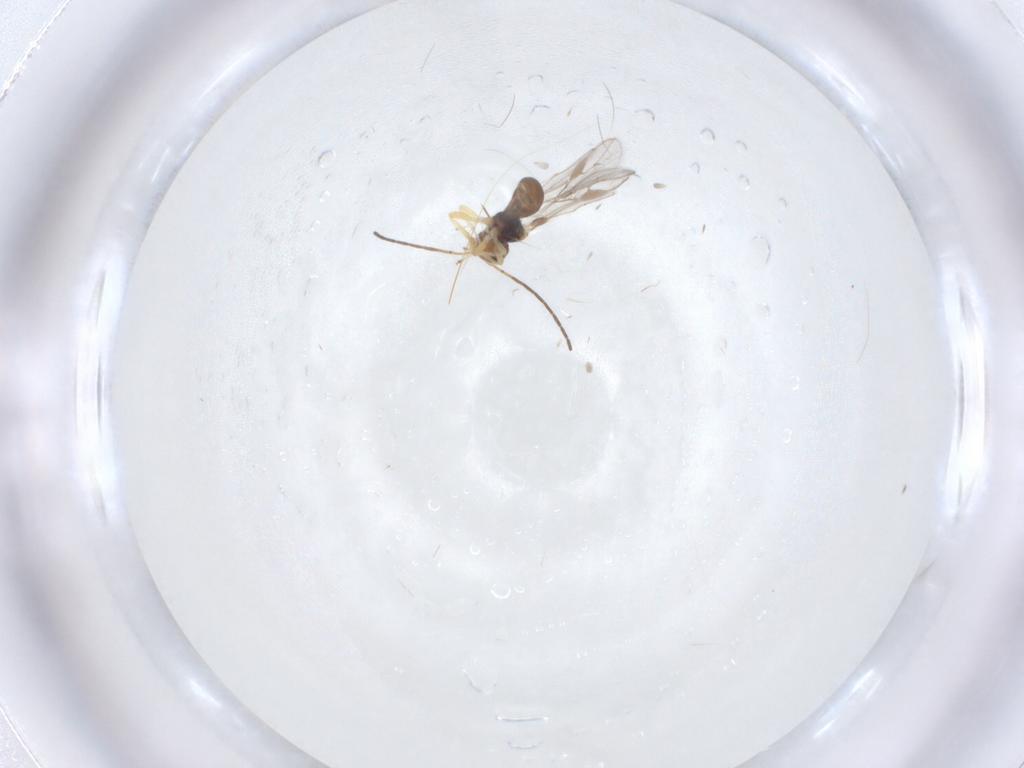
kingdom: Animalia
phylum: Arthropoda
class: Insecta
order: Hymenoptera
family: Braconidae
